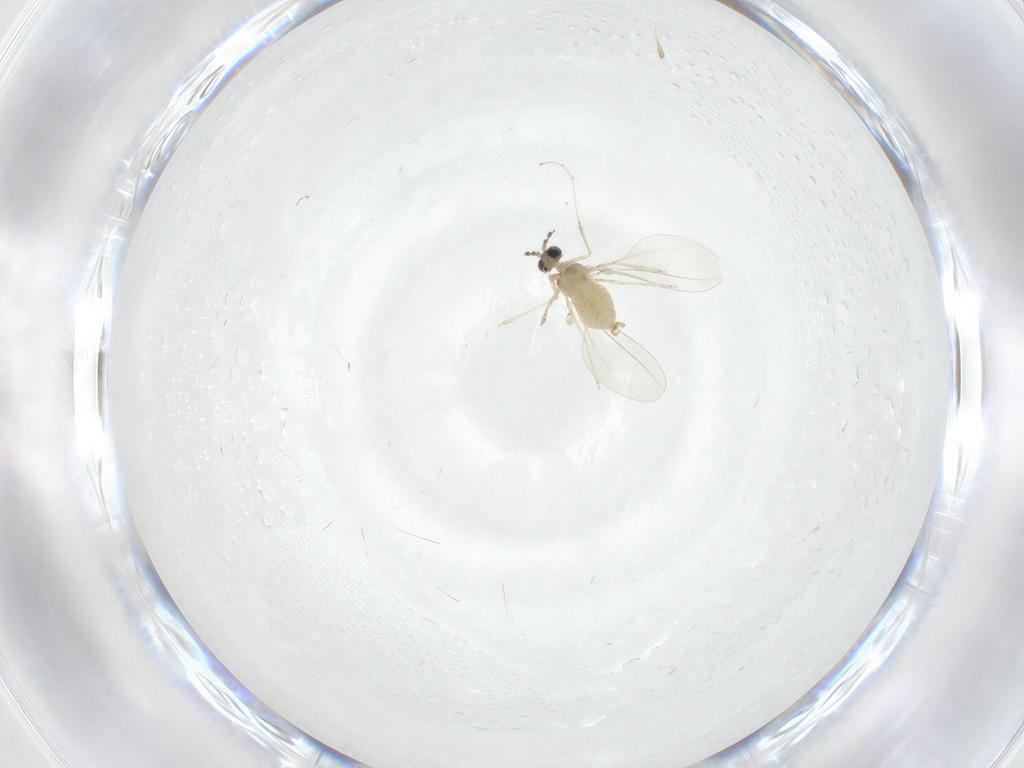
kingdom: Animalia
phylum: Arthropoda
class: Insecta
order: Diptera
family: Cecidomyiidae
